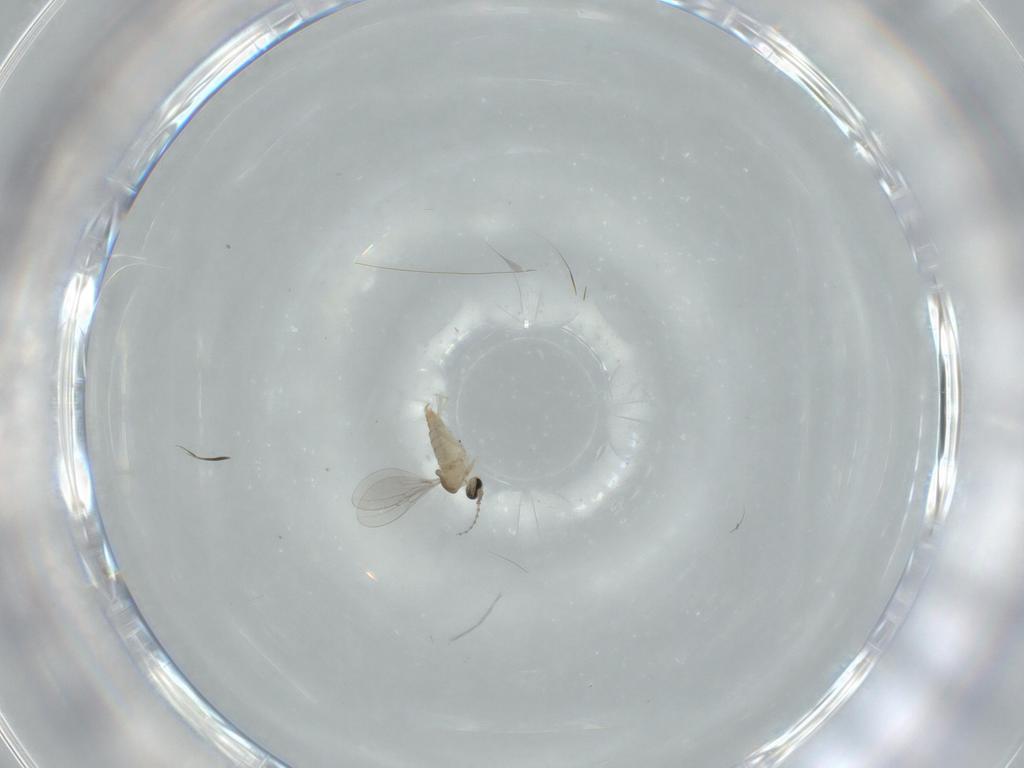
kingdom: Animalia
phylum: Arthropoda
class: Insecta
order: Diptera
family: Cecidomyiidae
